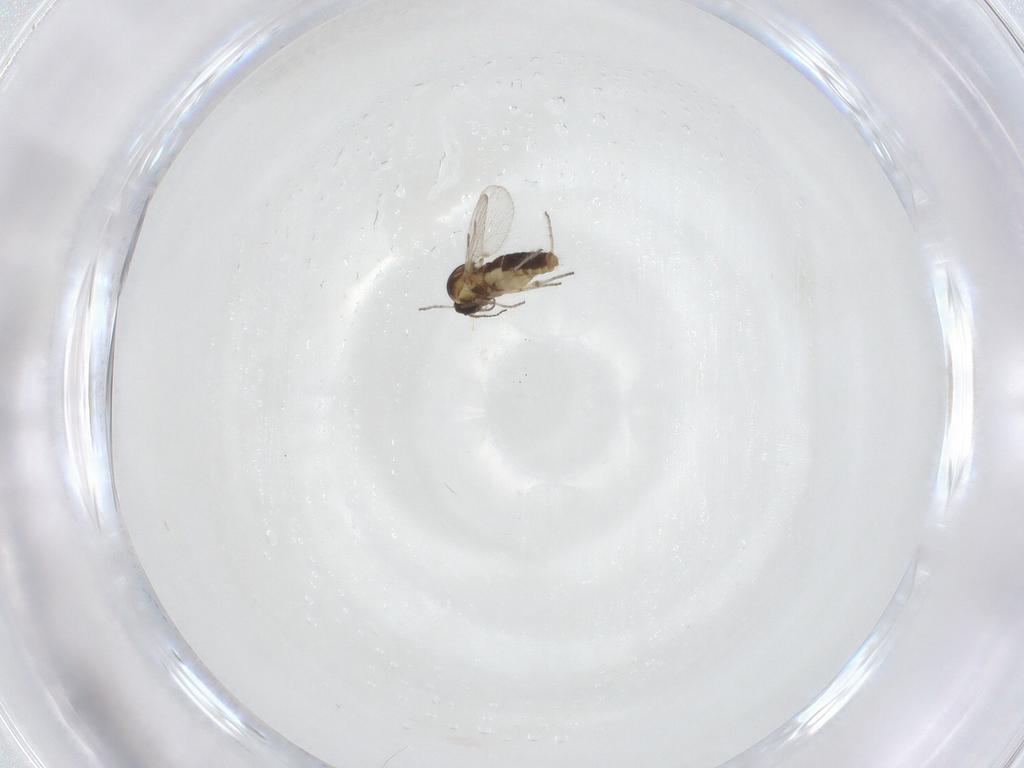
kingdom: Animalia
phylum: Arthropoda
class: Insecta
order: Diptera
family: Ceratopogonidae
